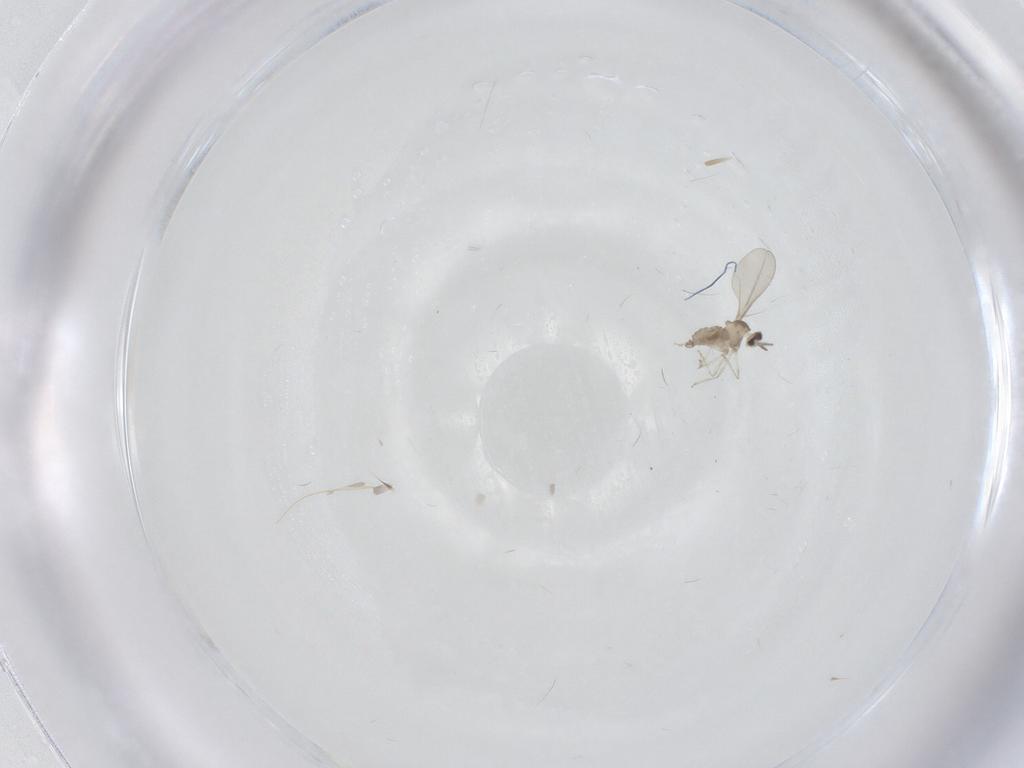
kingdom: Animalia
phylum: Arthropoda
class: Insecta
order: Diptera
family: Cecidomyiidae
